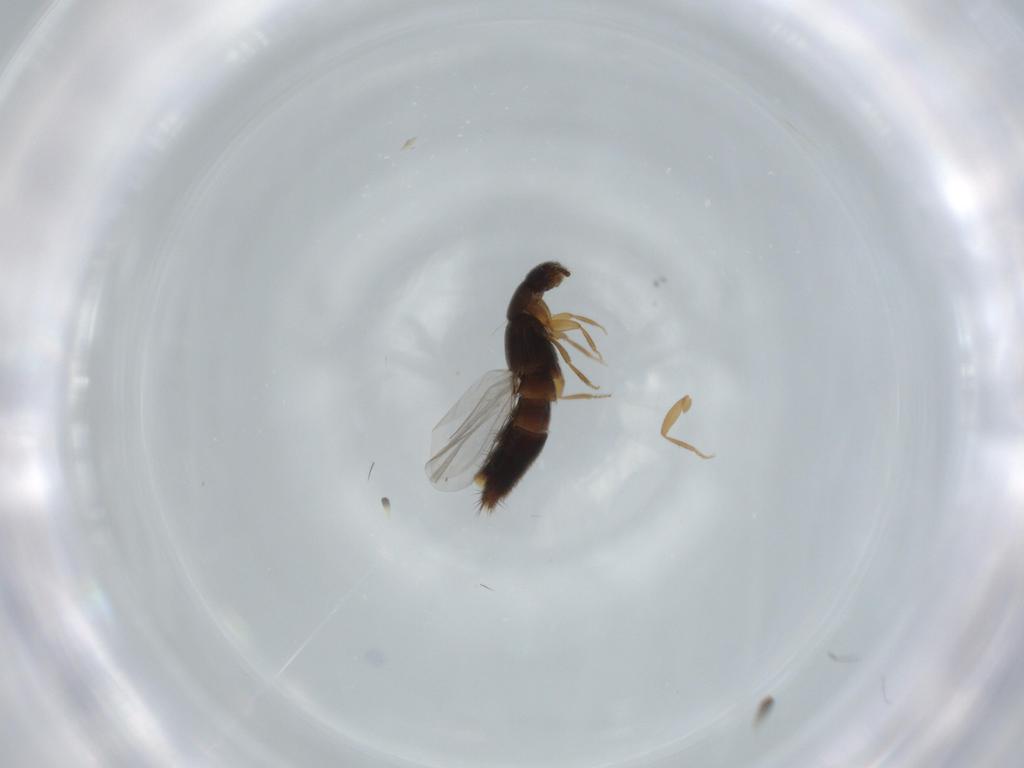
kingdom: Animalia
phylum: Arthropoda
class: Insecta
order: Coleoptera
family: Staphylinidae
